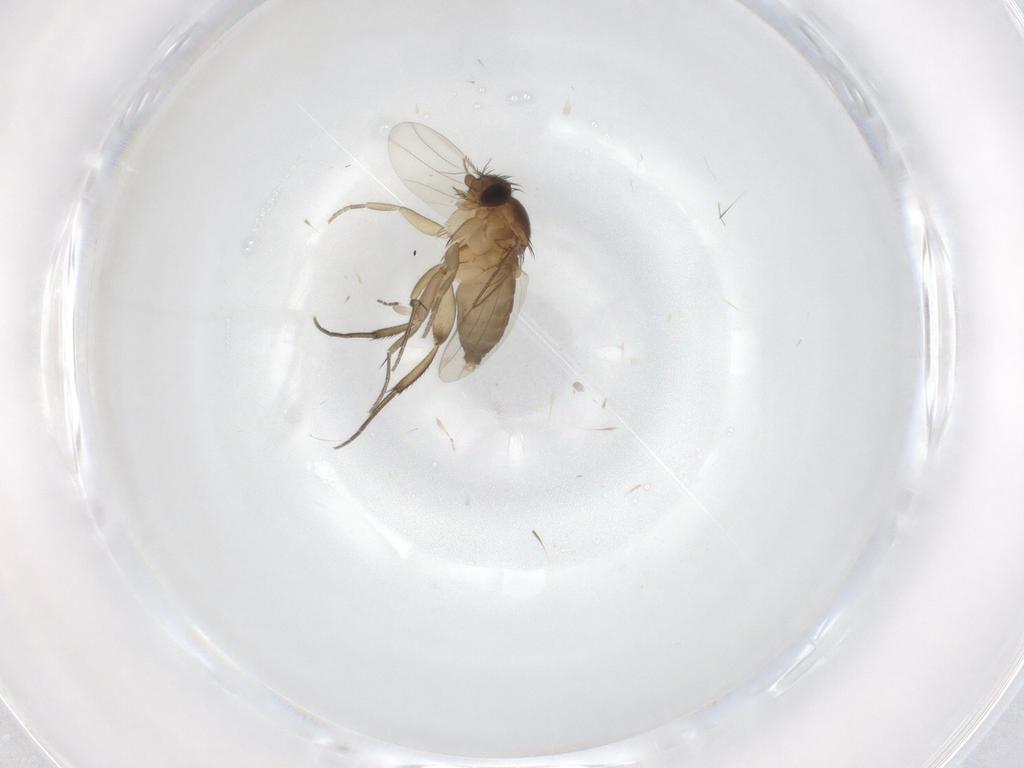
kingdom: Animalia
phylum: Arthropoda
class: Insecta
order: Diptera
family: Phoridae
